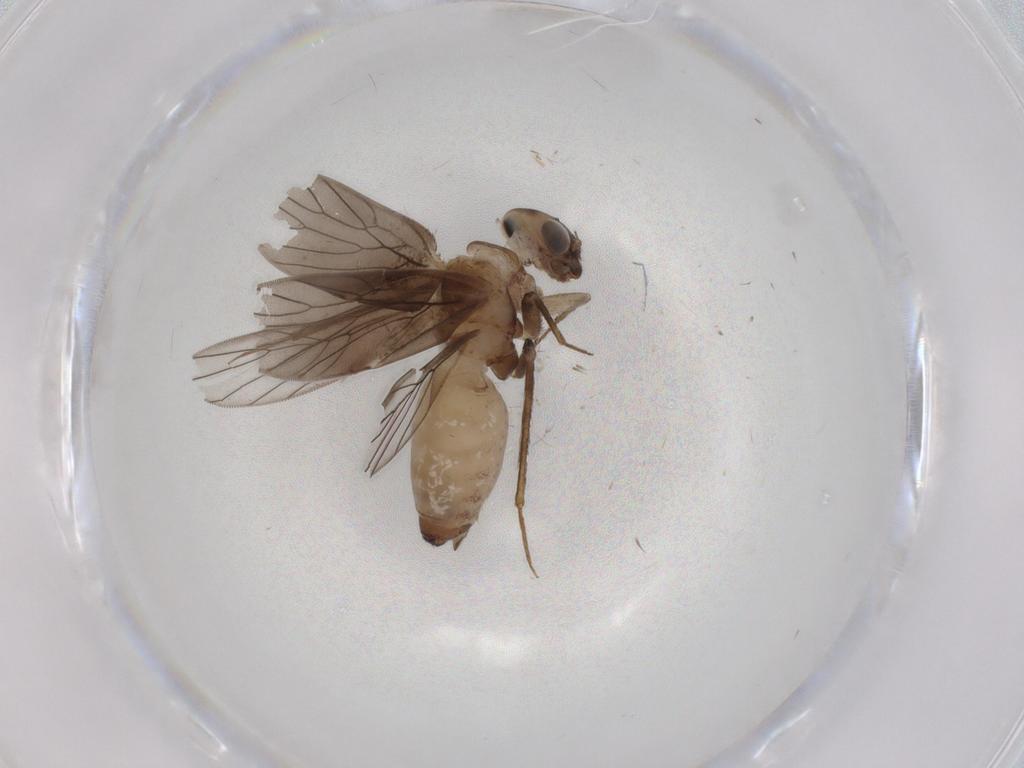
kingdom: Animalia
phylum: Arthropoda
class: Insecta
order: Psocodea
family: Lepidopsocidae
